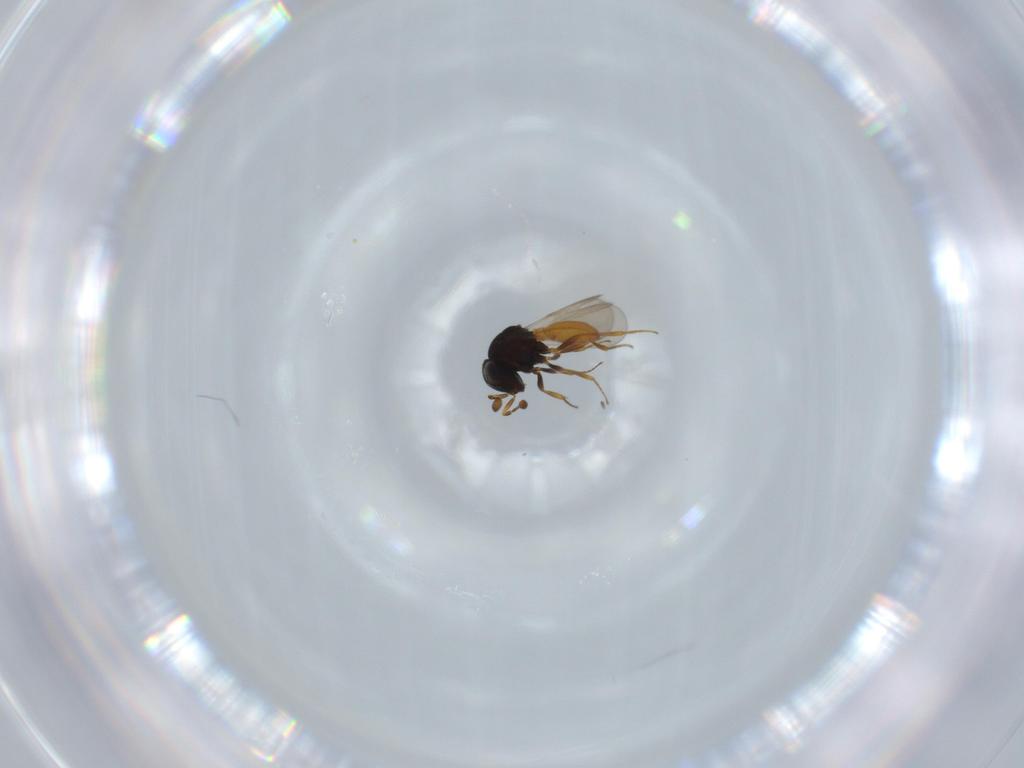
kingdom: Animalia
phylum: Arthropoda
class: Insecta
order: Hymenoptera
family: Scelionidae
